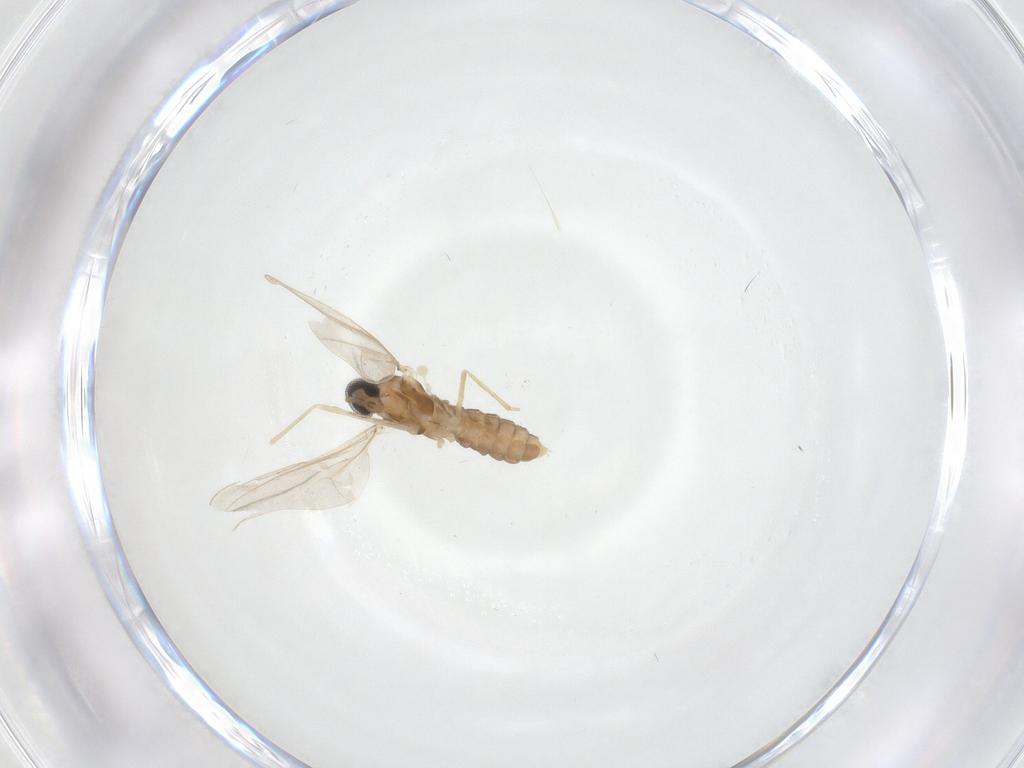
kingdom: Animalia
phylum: Arthropoda
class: Insecta
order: Diptera
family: Cecidomyiidae
